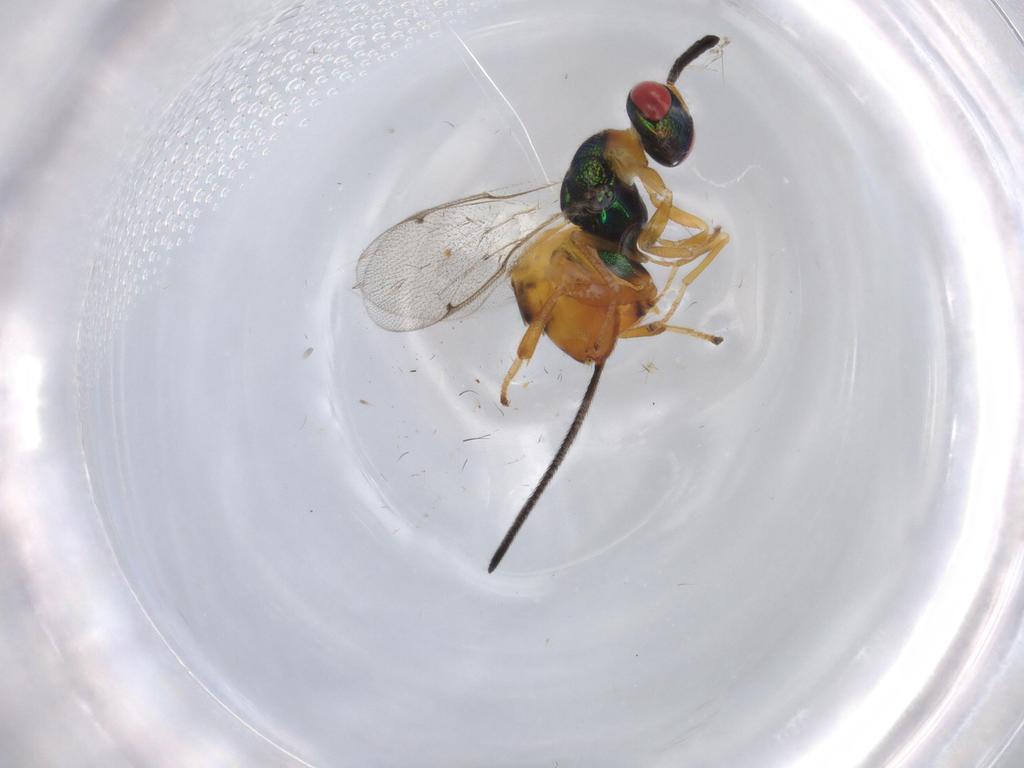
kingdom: Animalia
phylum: Arthropoda
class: Insecta
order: Hymenoptera
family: Torymidae
